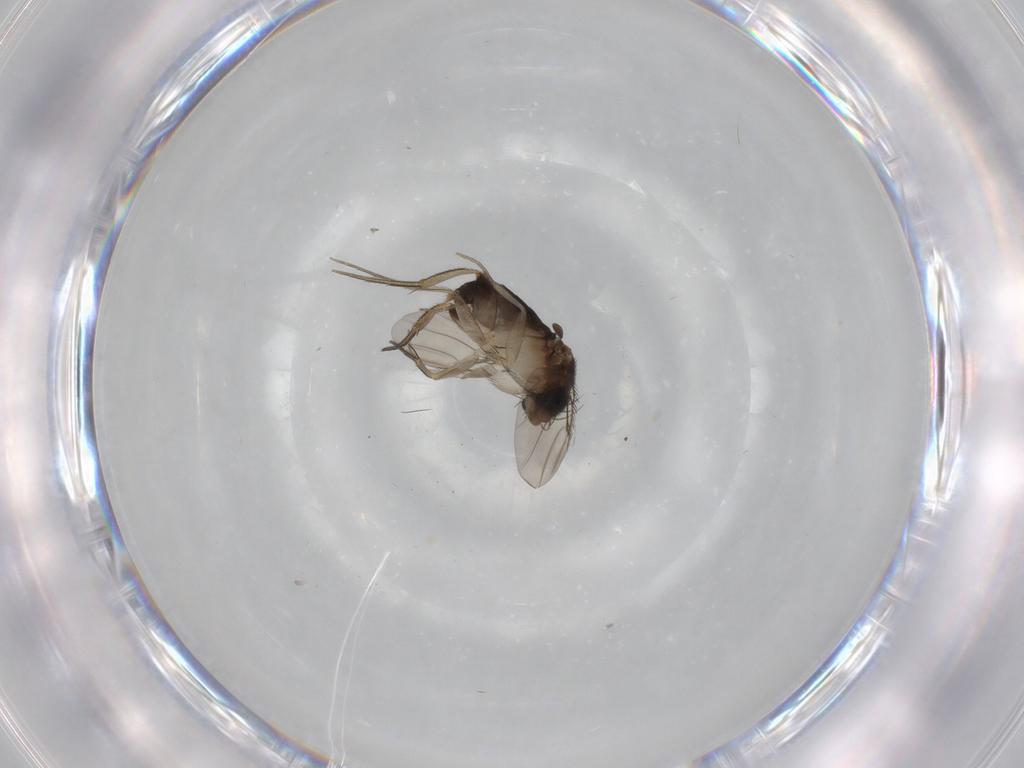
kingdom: Animalia
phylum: Arthropoda
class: Insecta
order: Diptera
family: Phoridae
